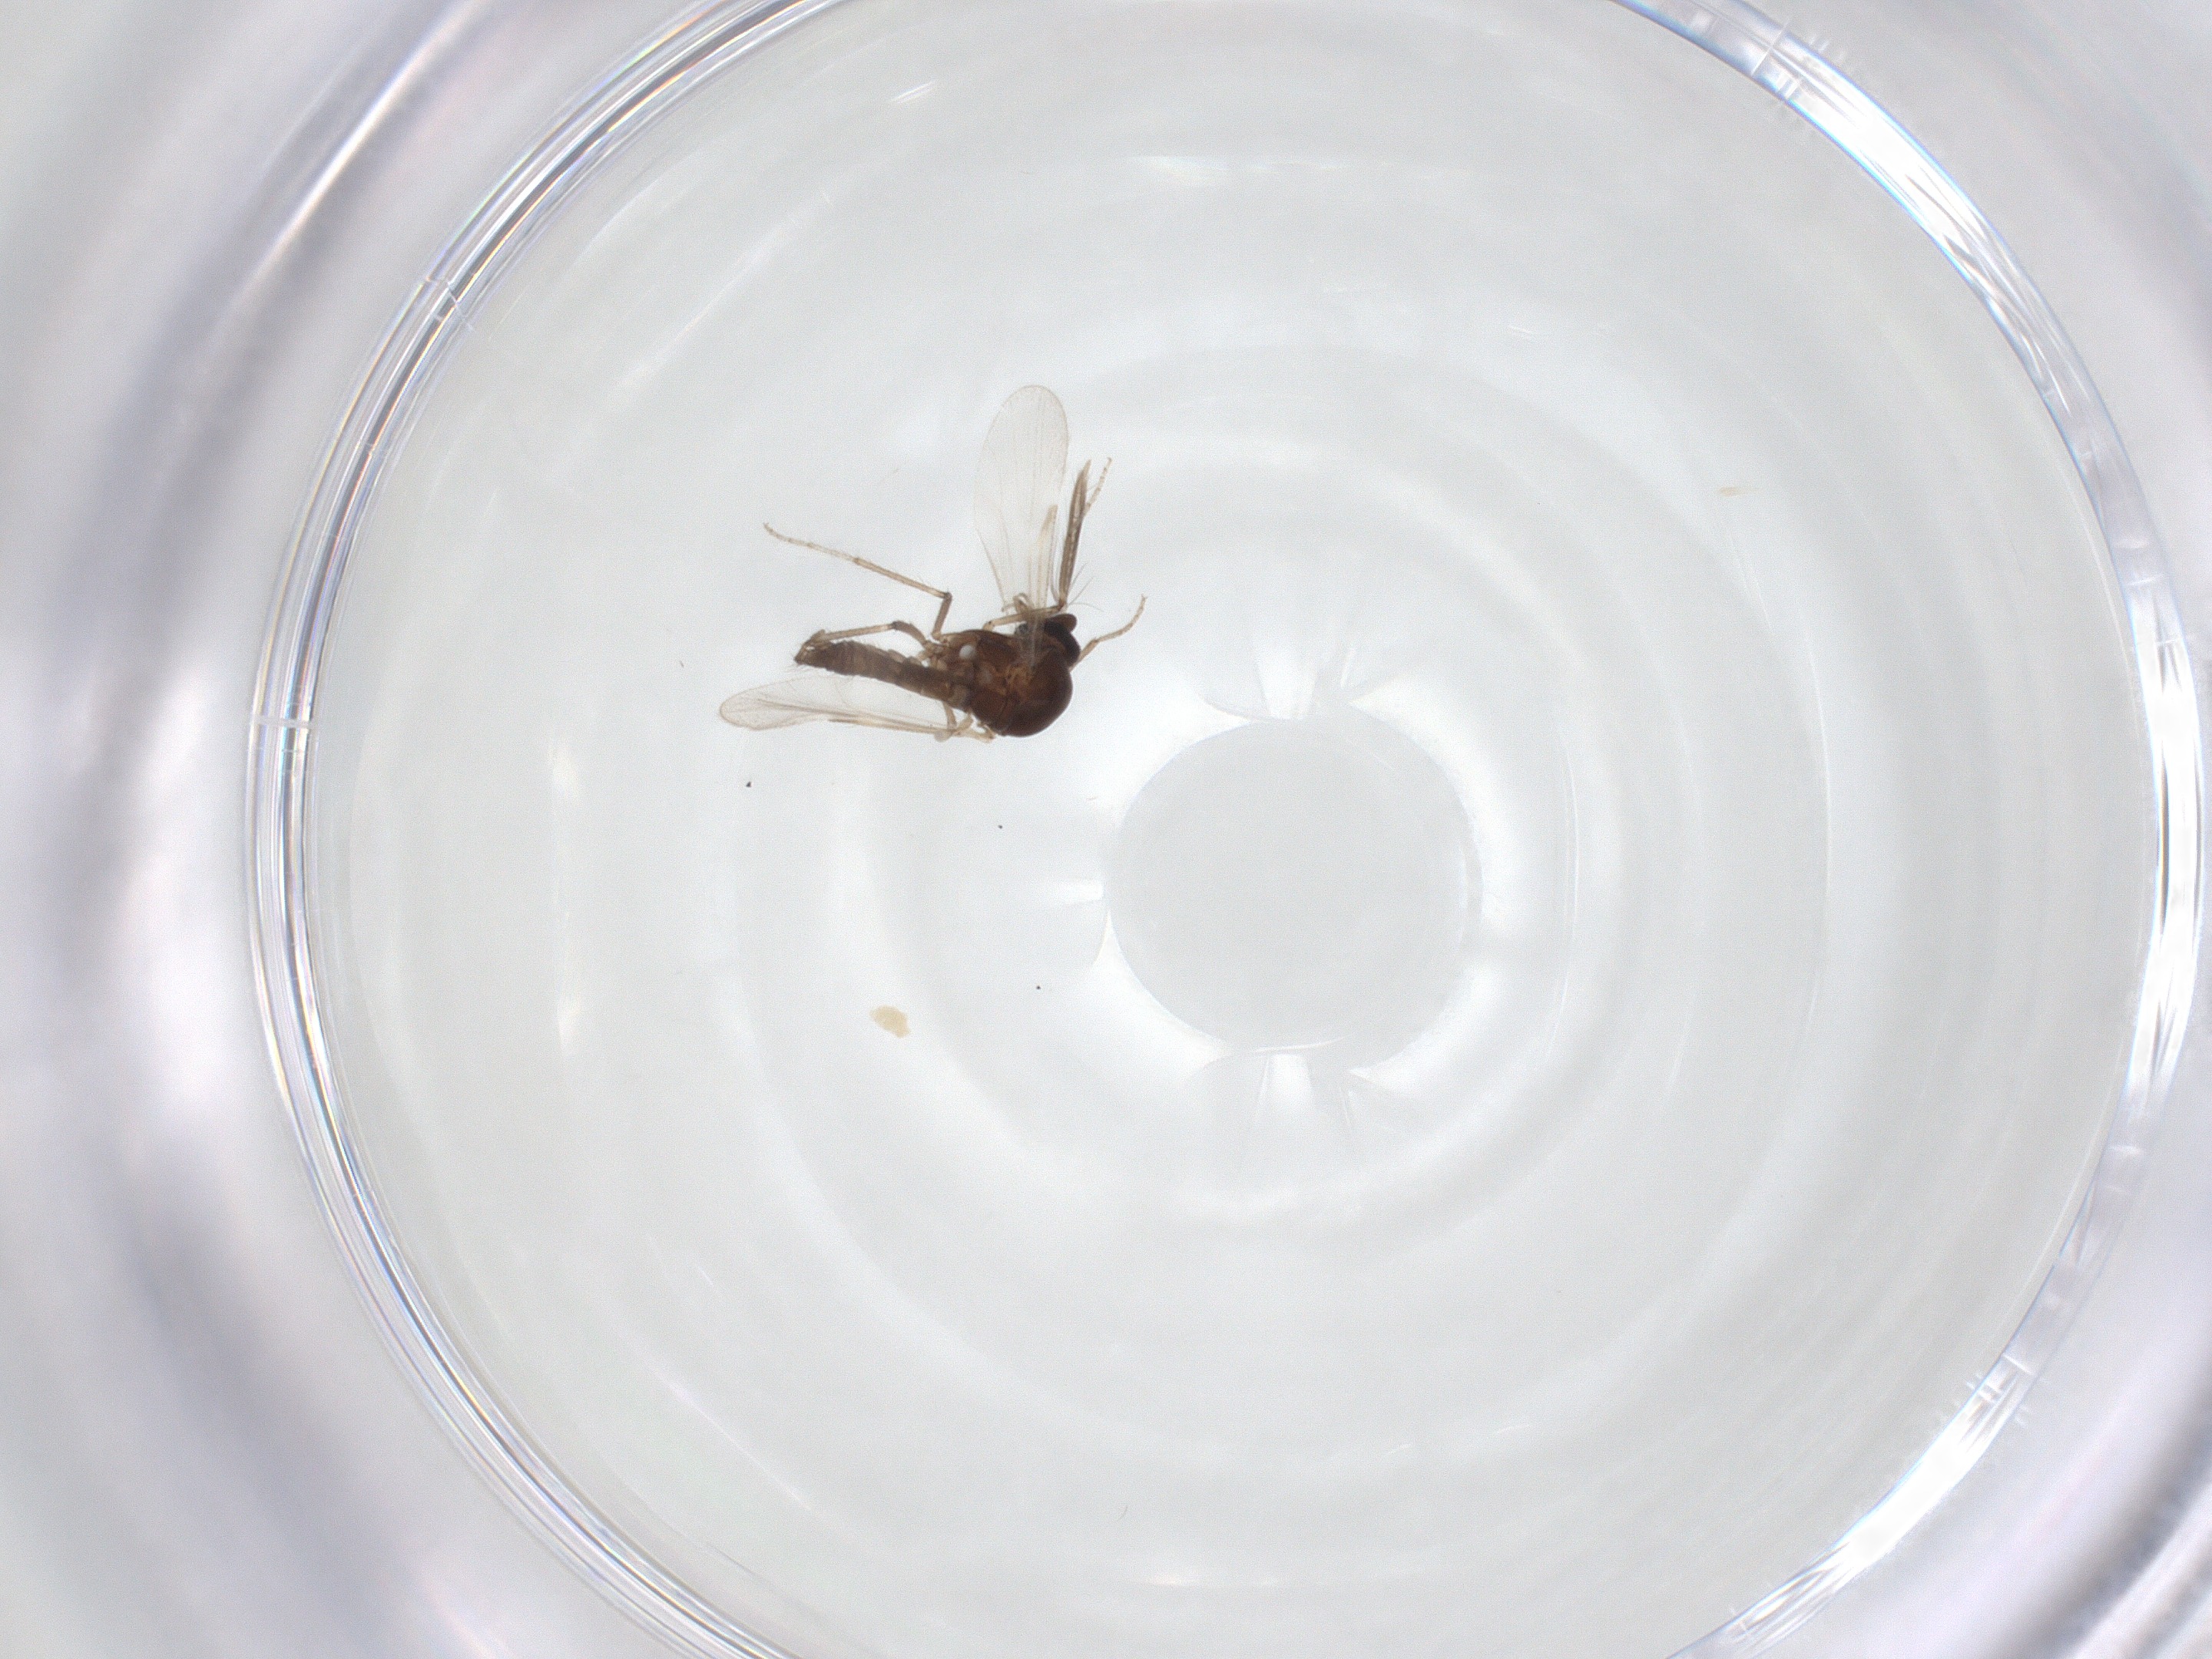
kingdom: Animalia
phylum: Arthropoda
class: Insecta
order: Diptera
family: Ceratopogonidae
